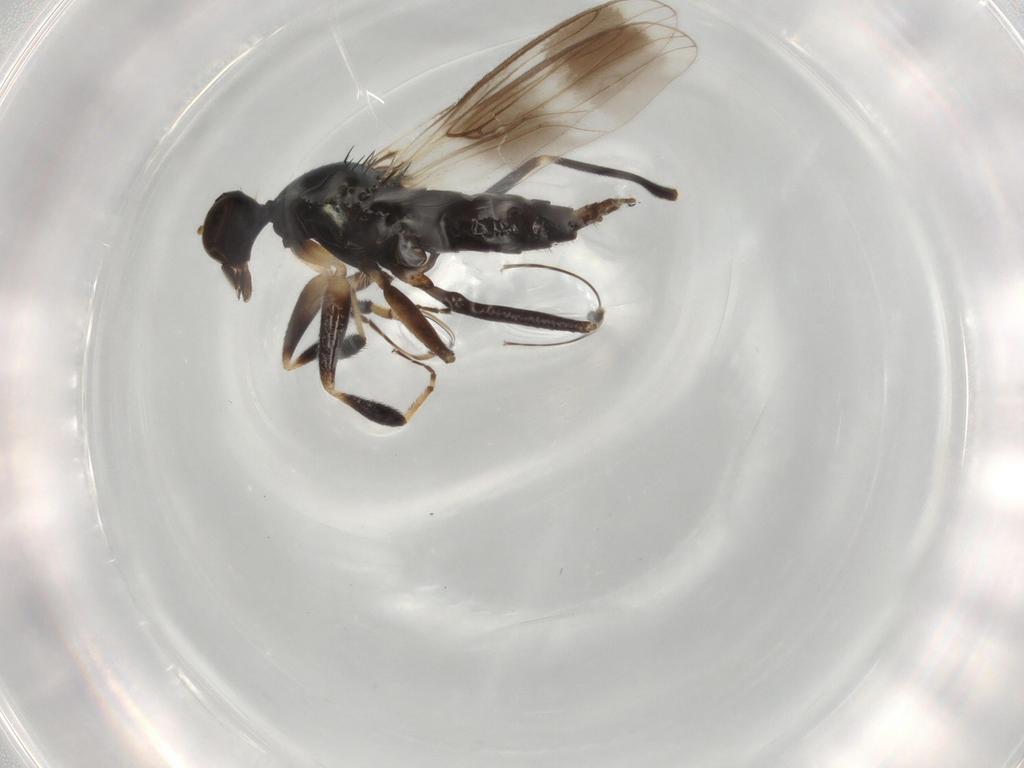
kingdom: Animalia
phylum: Arthropoda
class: Insecta
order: Diptera
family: Hybotidae
